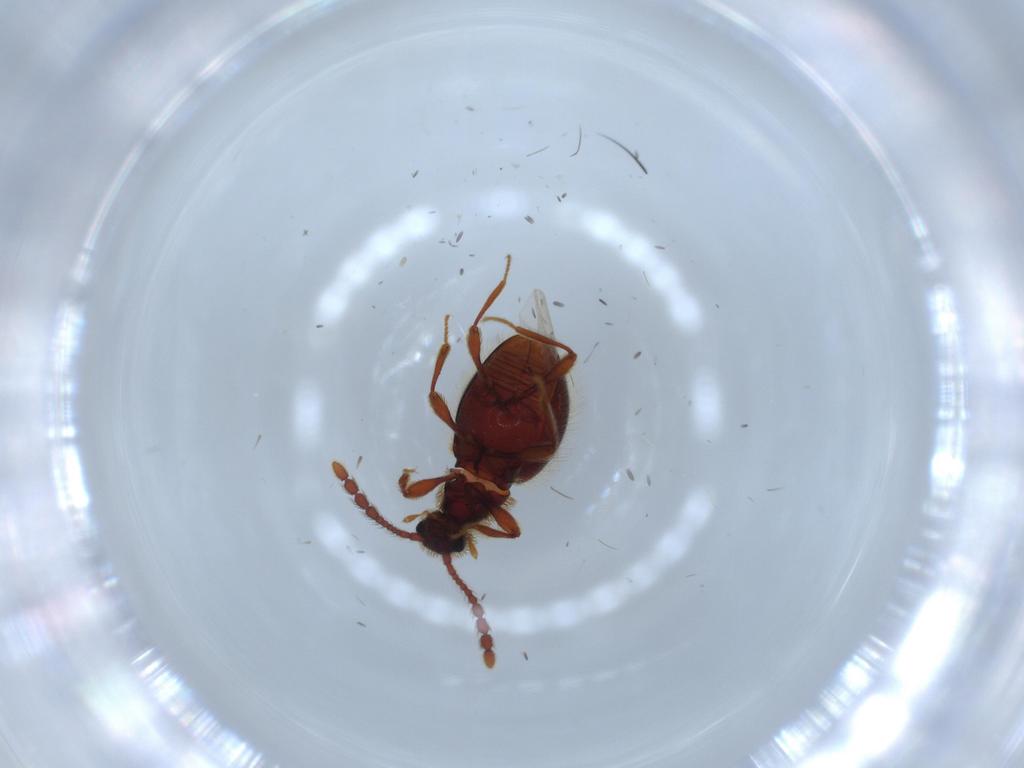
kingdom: Animalia
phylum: Arthropoda
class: Insecta
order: Coleoptera
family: Staphylinidae
